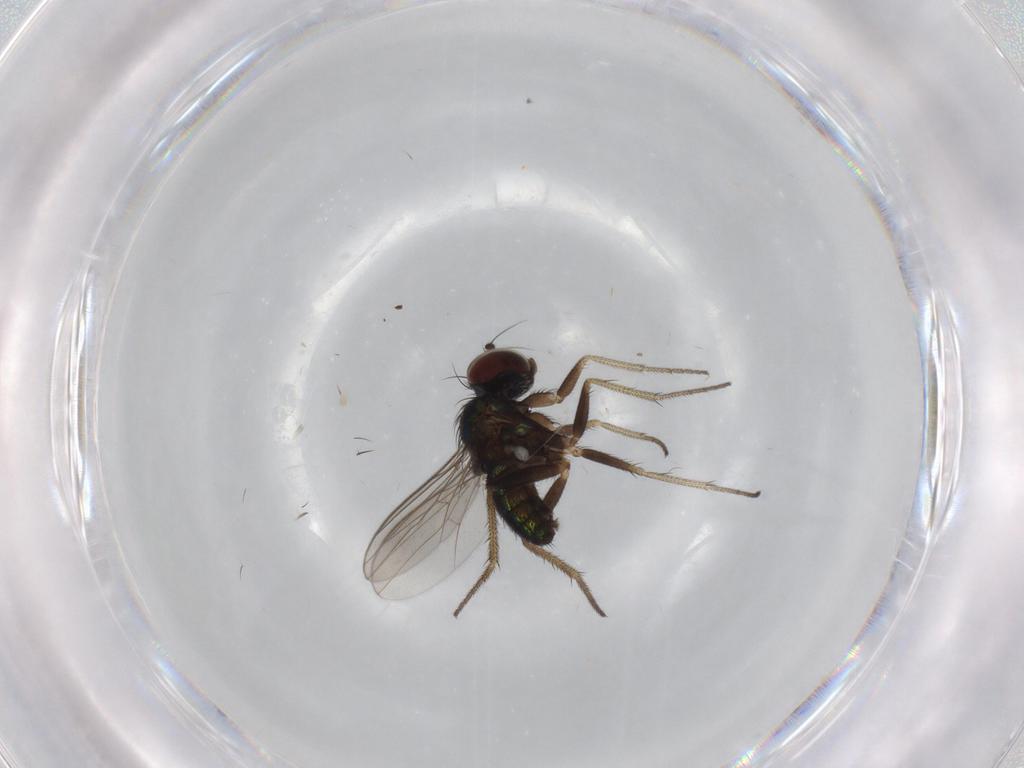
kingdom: Animalia
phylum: Arthropoda
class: Insecta
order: Diptera
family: Dolichopodidae
